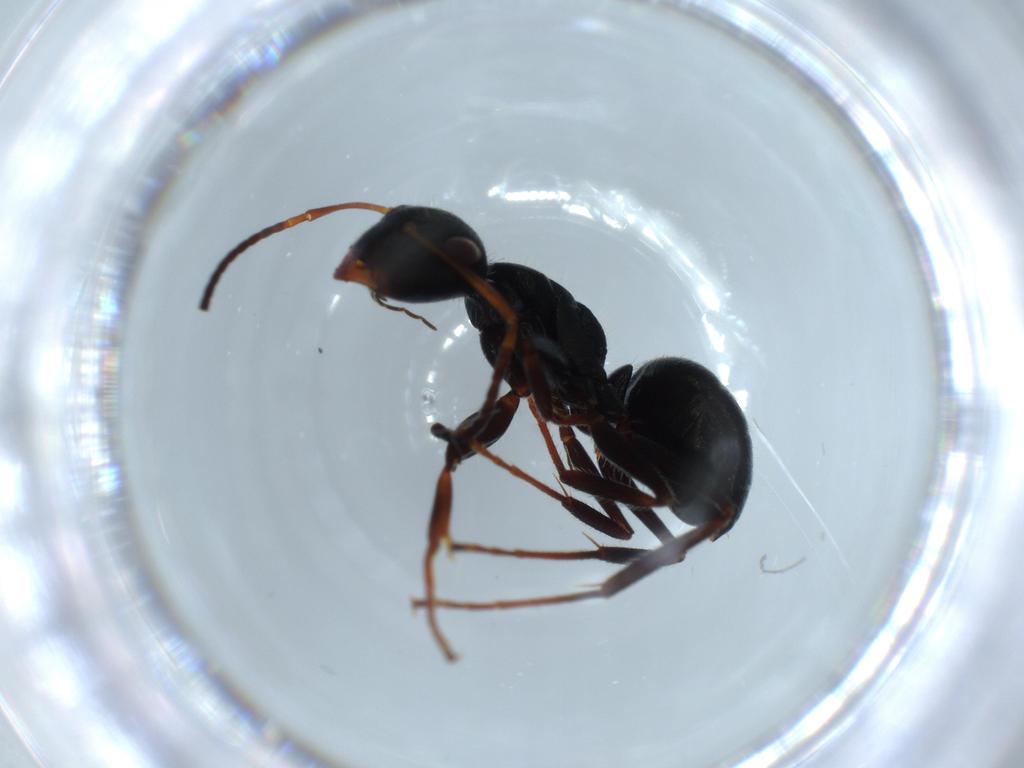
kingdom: Animalia
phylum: Arthropoda
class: Insecta
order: Hymenoptera
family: Formicidae
